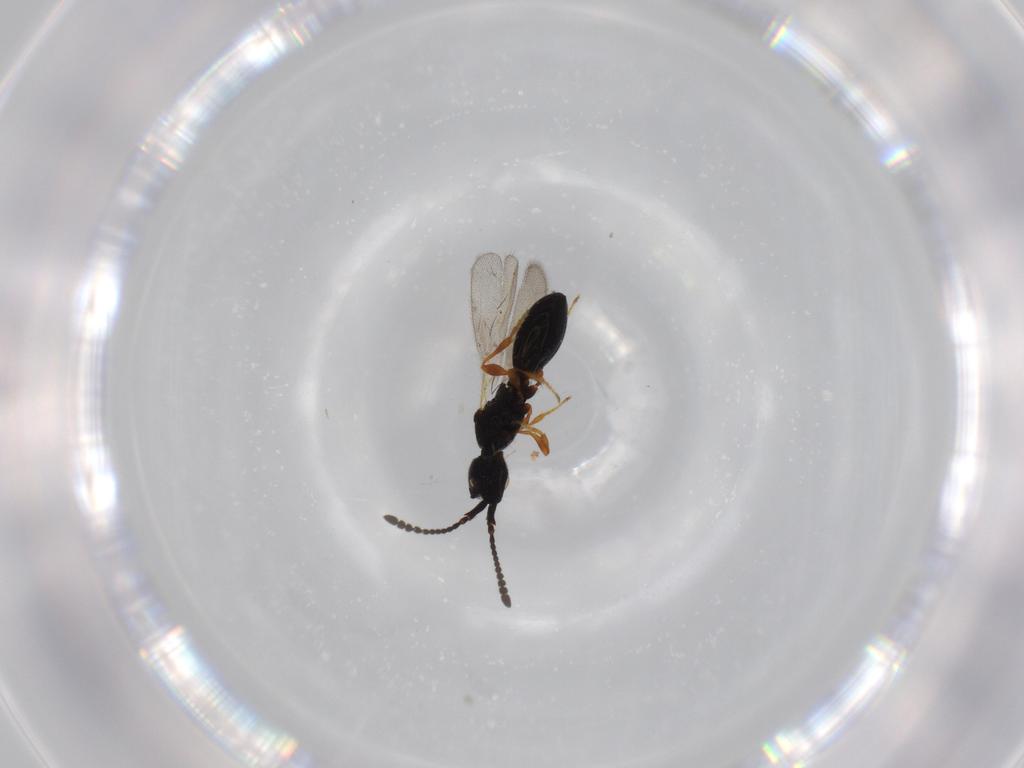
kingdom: Animalia
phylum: Arthropoda
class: Insecta
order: Hymenoptera
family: Diapriidae
